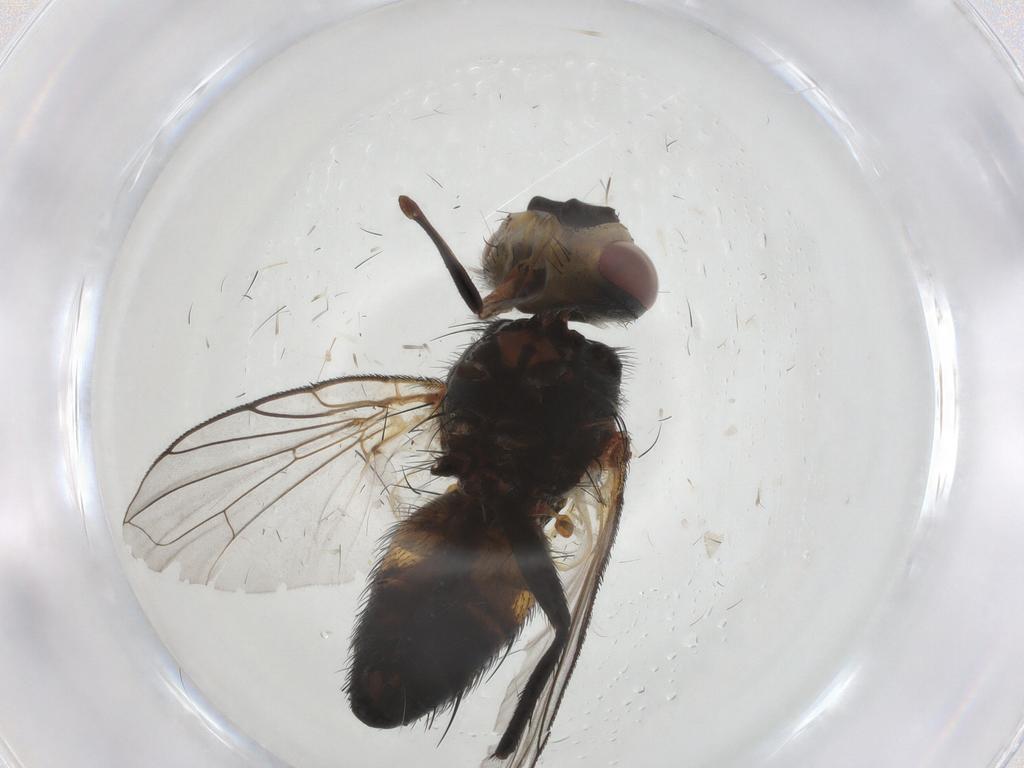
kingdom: Animalia
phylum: Arthropoda
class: Insecta
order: Diptera
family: Tachinidae
